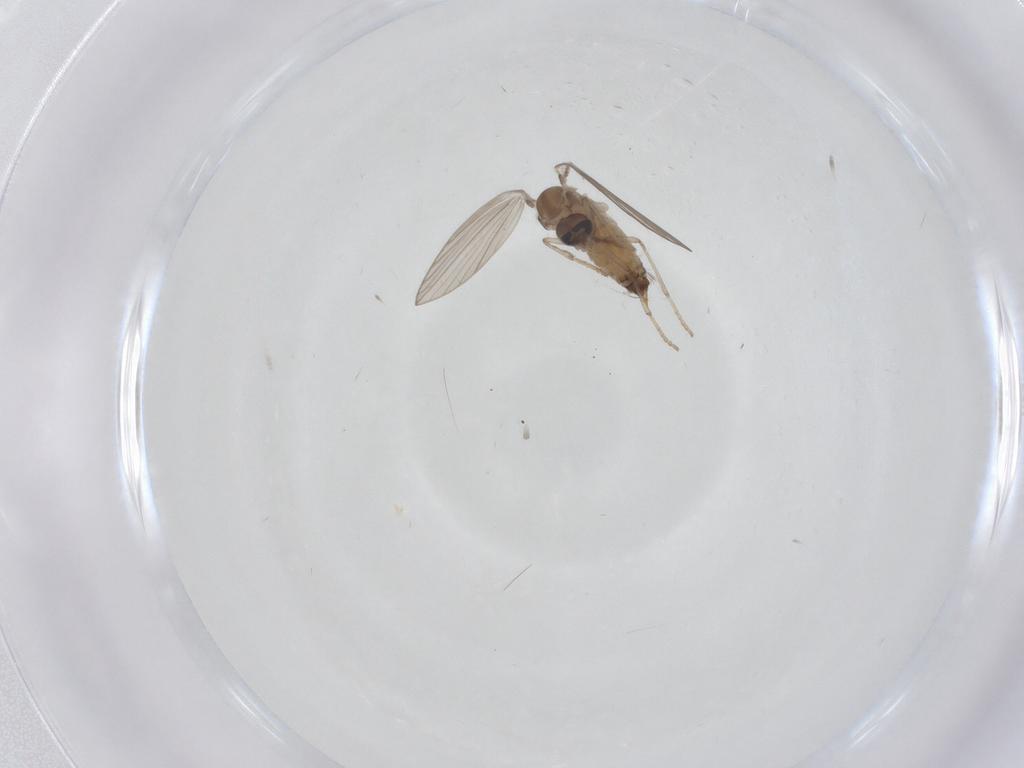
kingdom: Animalia
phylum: Arthropoda
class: Insecta
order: Diptera
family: Psychodidae
